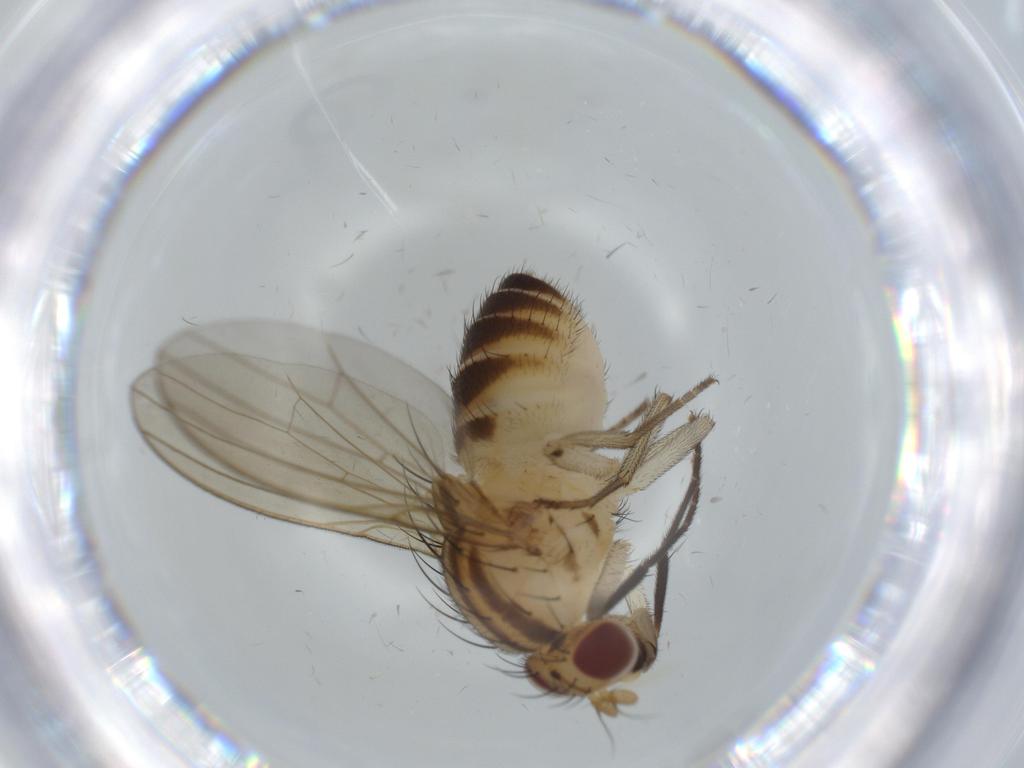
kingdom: Animalia
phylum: Arthropoda
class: Insecta
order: Diptera
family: Lauxaniidae
